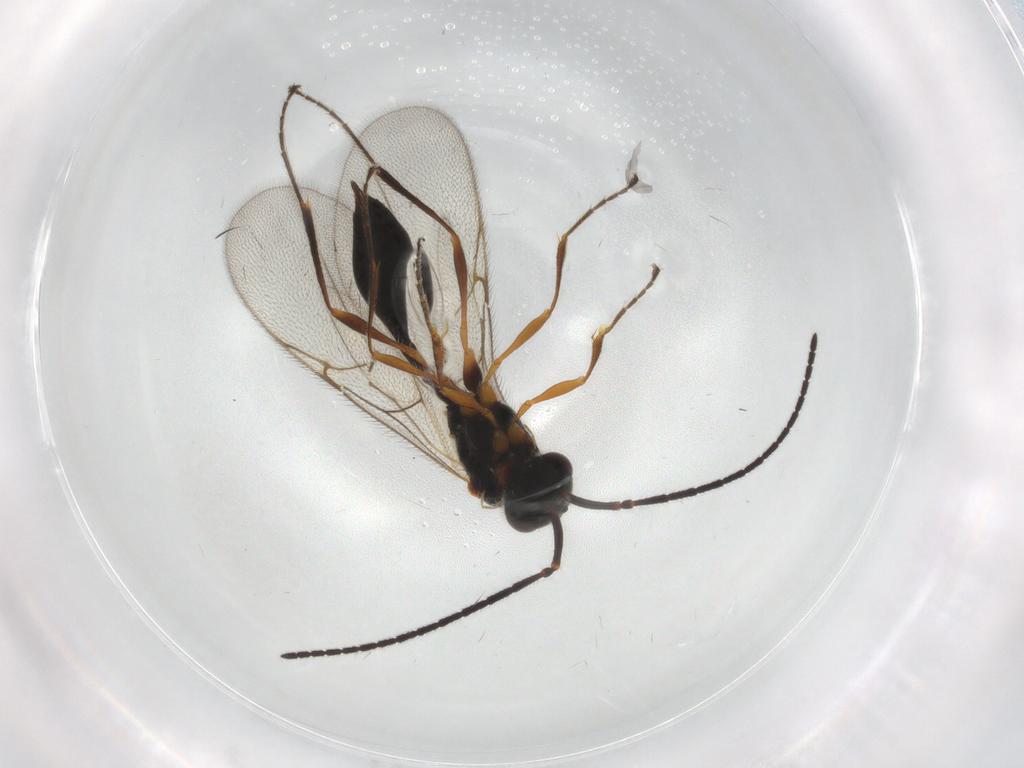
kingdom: Animalia
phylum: Arthropoda
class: Insecta
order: Hymenoptera
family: Diapriidae
